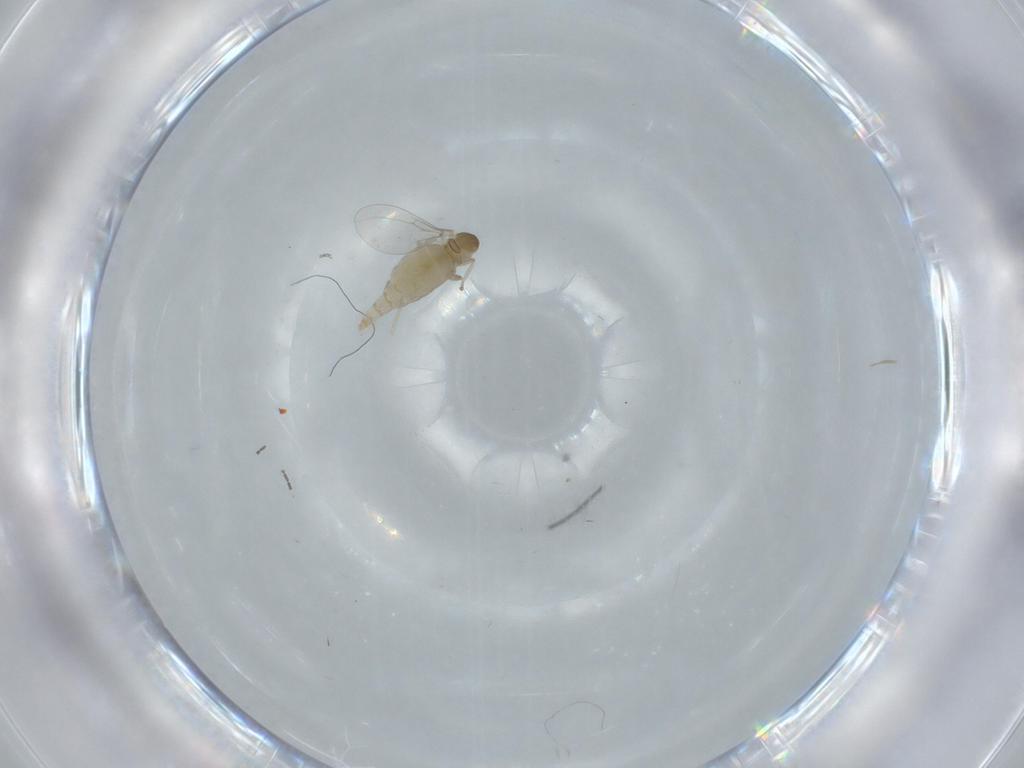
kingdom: Animalia
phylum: Arthropoda
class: Insecta
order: Diptera
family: Cecidomyiidae
